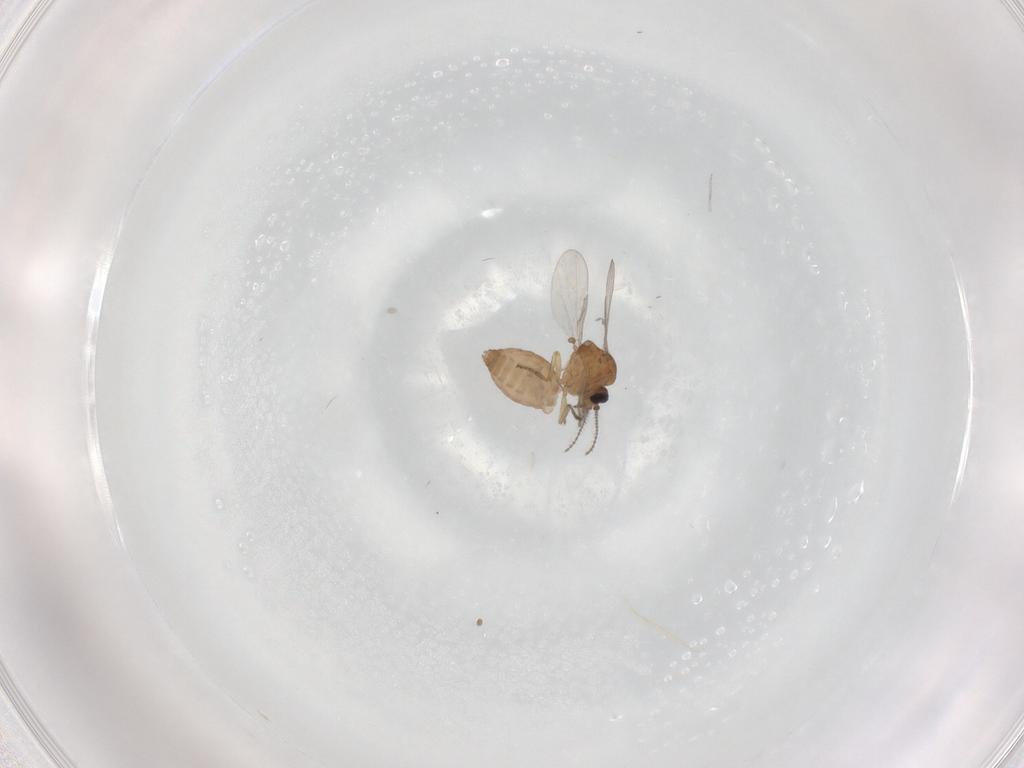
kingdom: Animalia
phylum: Arthropoda
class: Insecta
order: Diptera
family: Ceratopogonidae
